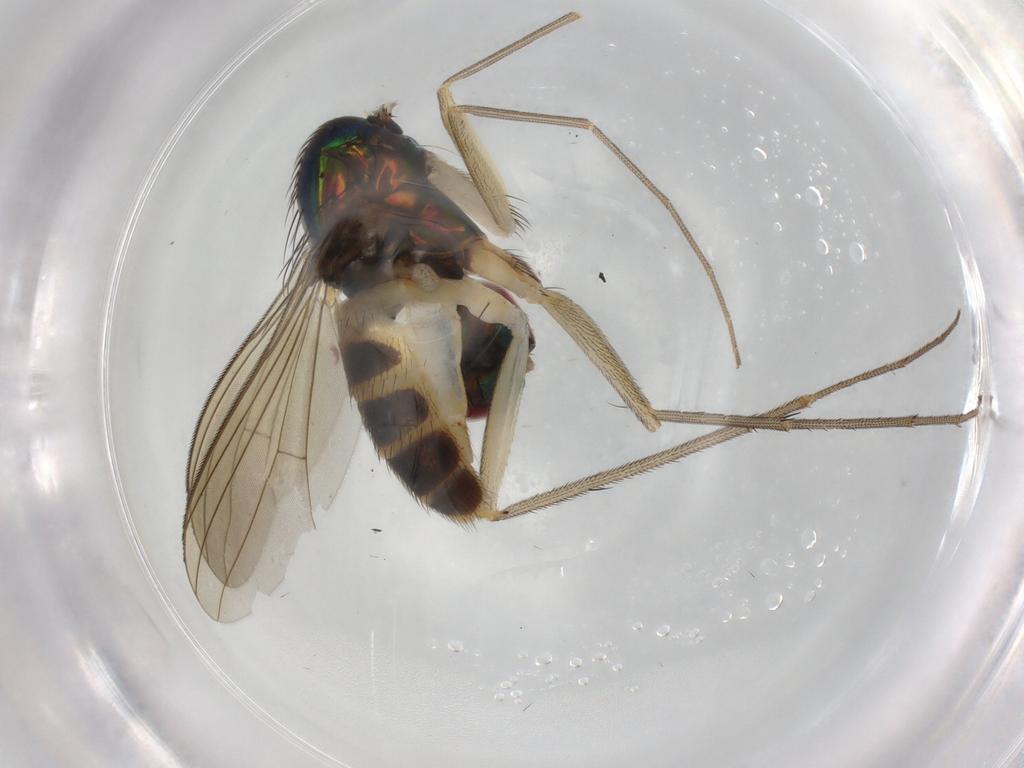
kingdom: Animalia
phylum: Arthropoda
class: Insecta
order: Diptera
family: Dolichopodidae
